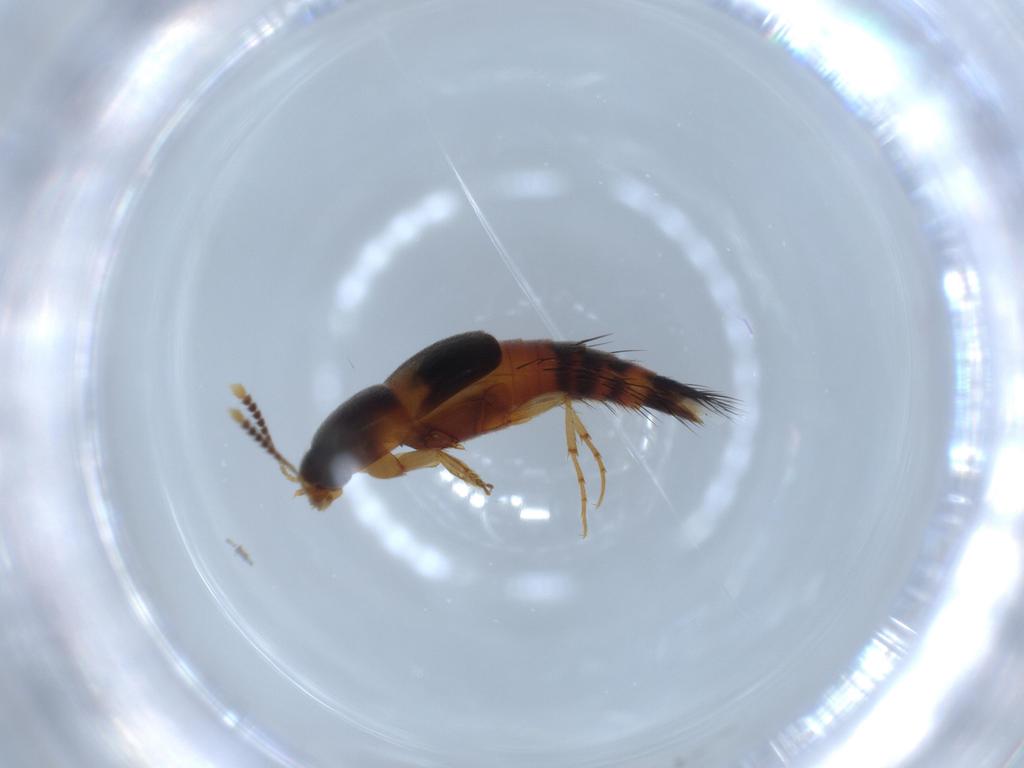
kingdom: Animalia
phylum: Arthropoda
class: Insecta
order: Coleoptera
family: Staphylinidae
